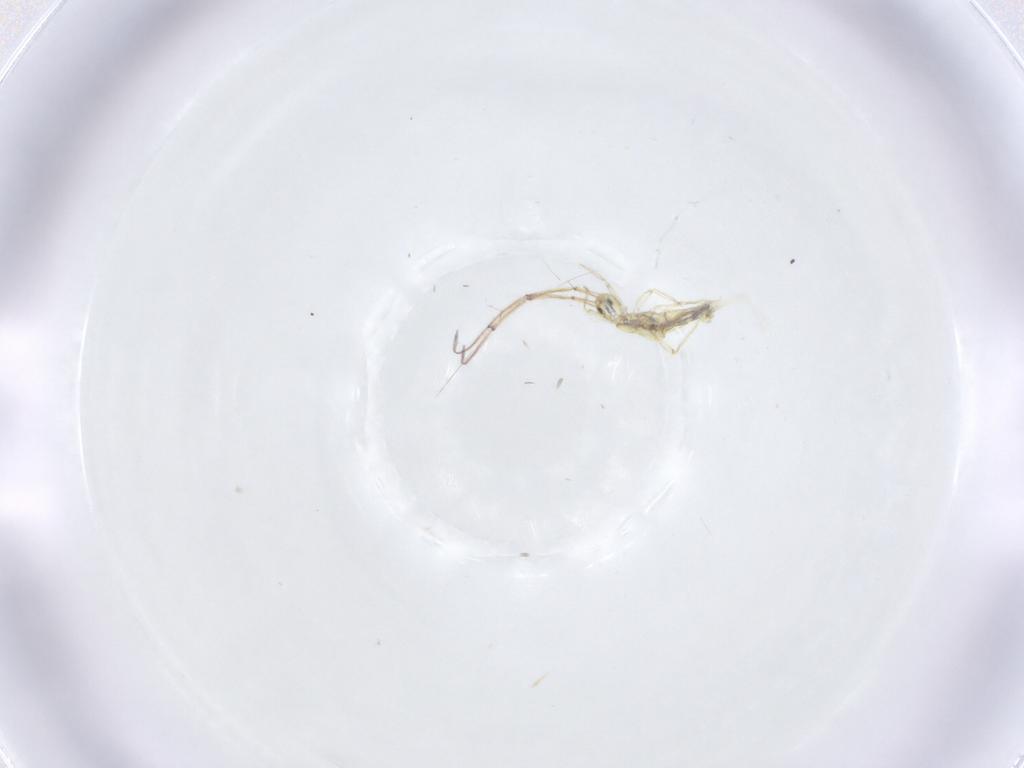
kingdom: Animalia
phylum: Arthropoda
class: Collembola
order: Entomobryomorpha
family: Paronellidae
